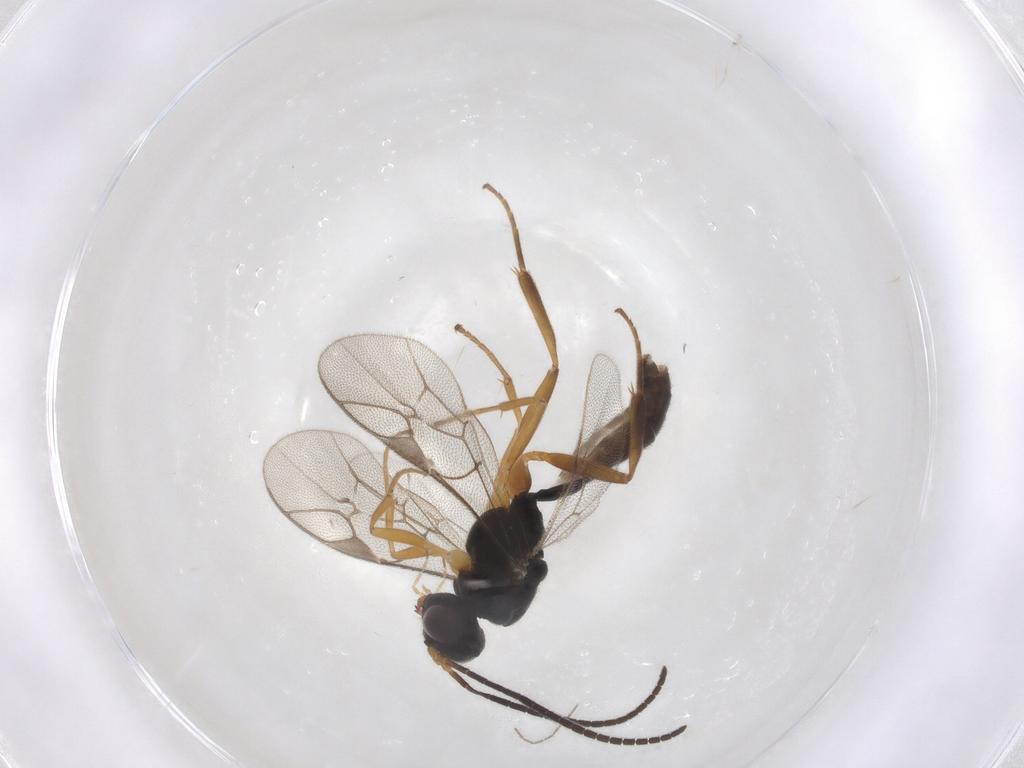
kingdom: Animalia
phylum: Arthropoda
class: Insecta
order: Hymenoptera
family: Ichneumonidae
